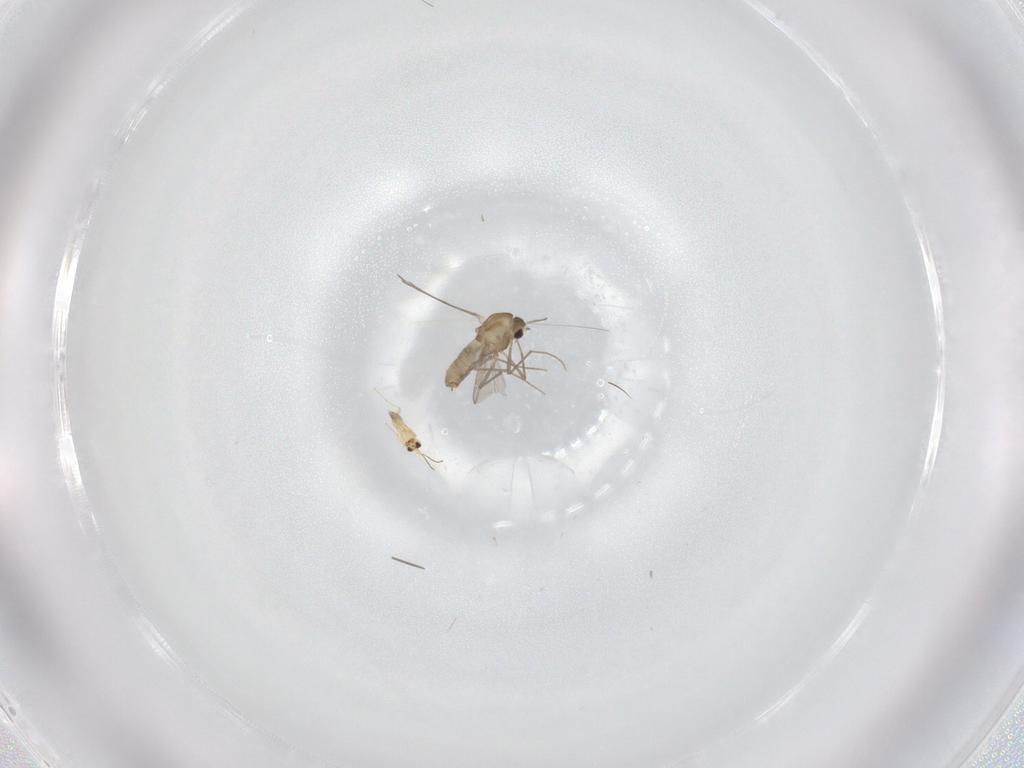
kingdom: Animalia
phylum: Arthropoda
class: Insecta
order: Diptera
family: Chironomidae
